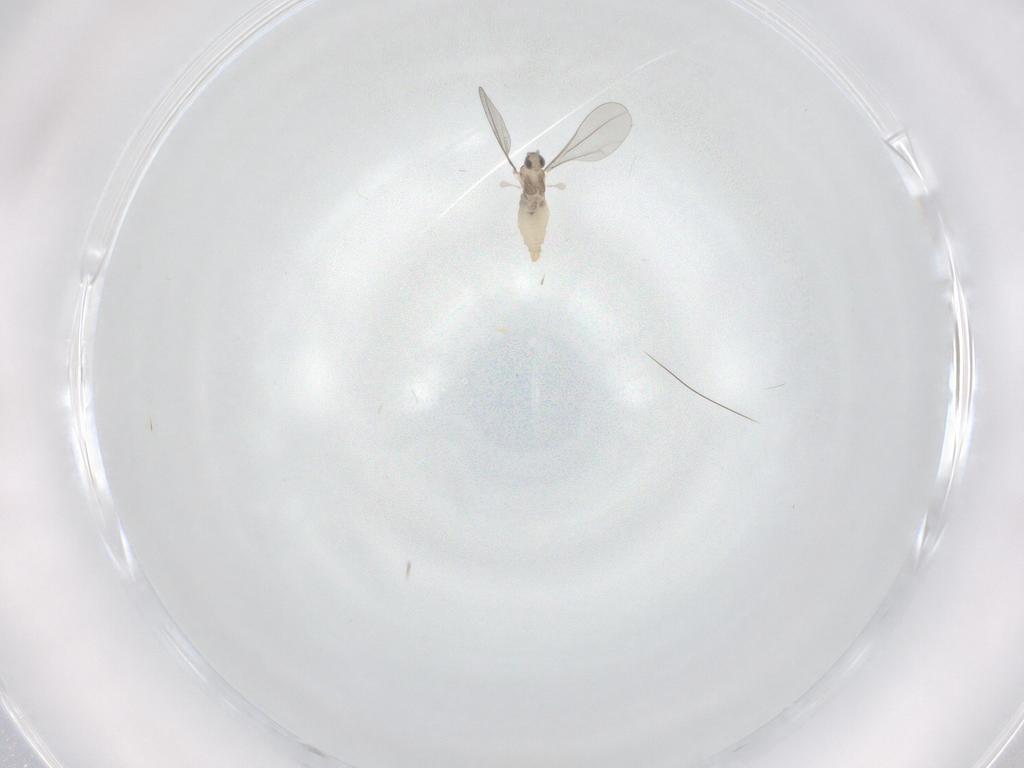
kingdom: Animalia
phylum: Arthropoda
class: Insecta
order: Diptera
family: Cecidomyiidae
